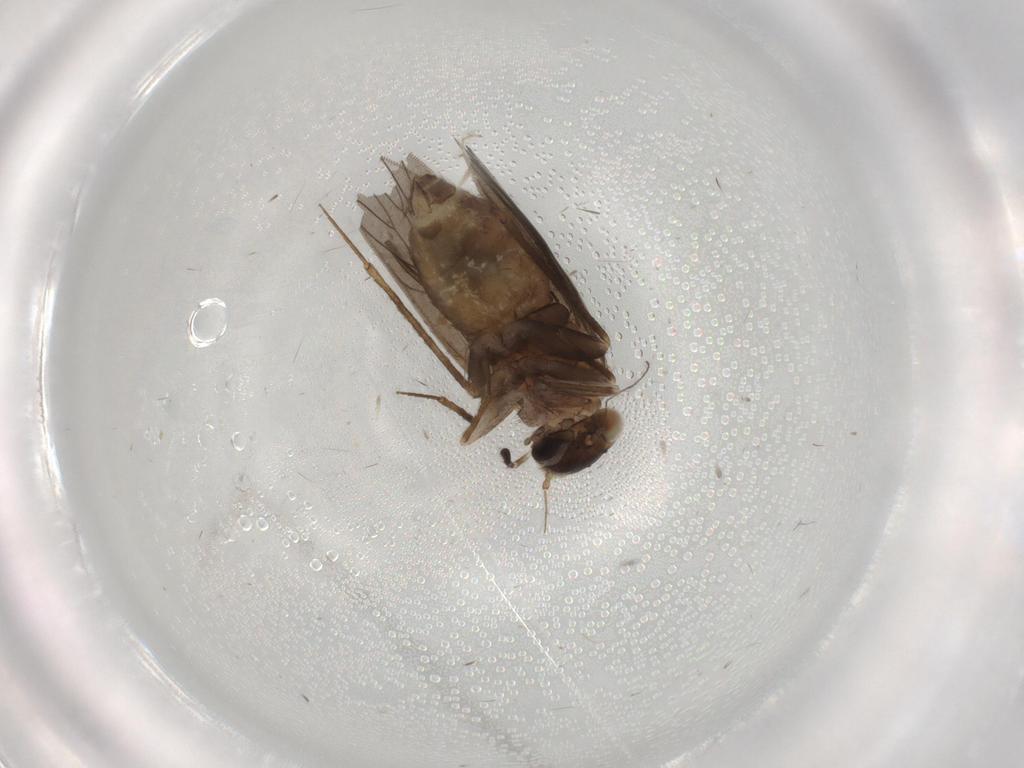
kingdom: Animalia
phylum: Arthropoda
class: Insecta
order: Psocodea
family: Lepidopsocidae
